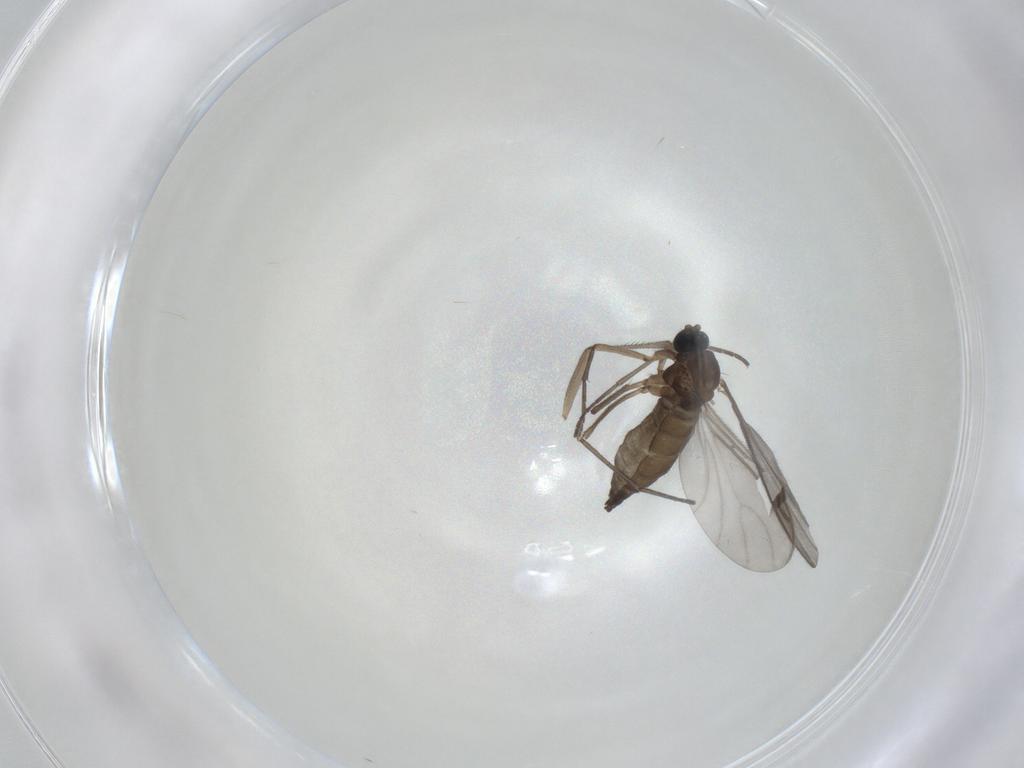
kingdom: Animalia
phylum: Arthropoda
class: Insecta
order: Diptera
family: Sciaridae
